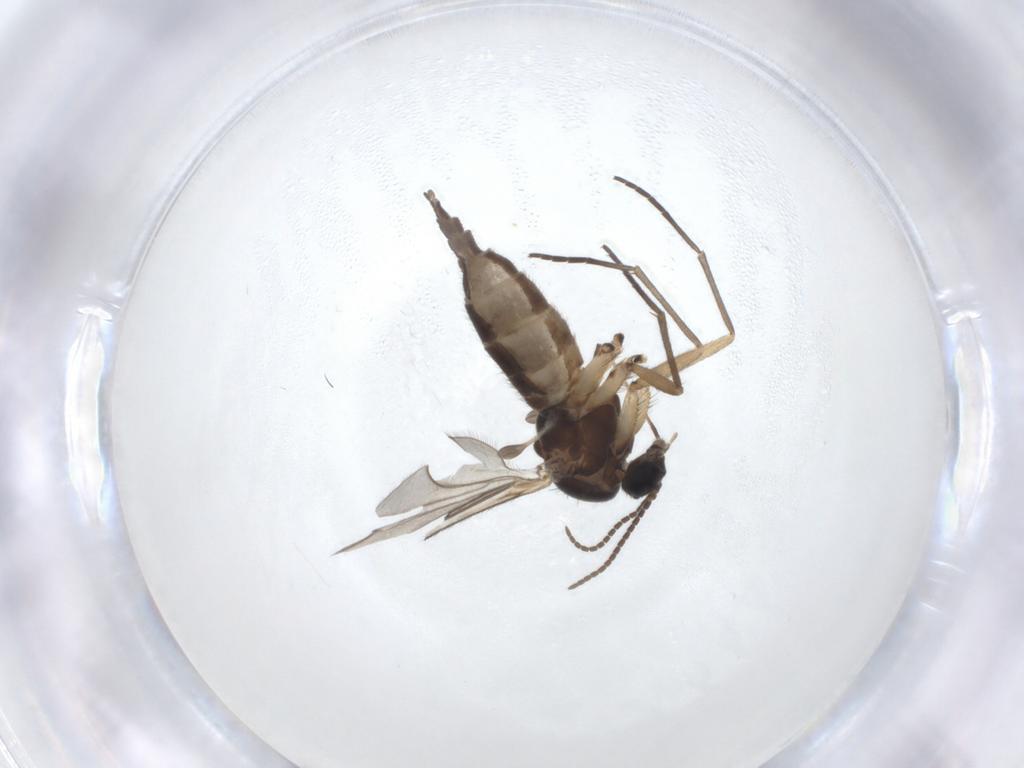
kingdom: Animalia
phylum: Arthropoda
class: Insecta
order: Diptera
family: Sciaridae
